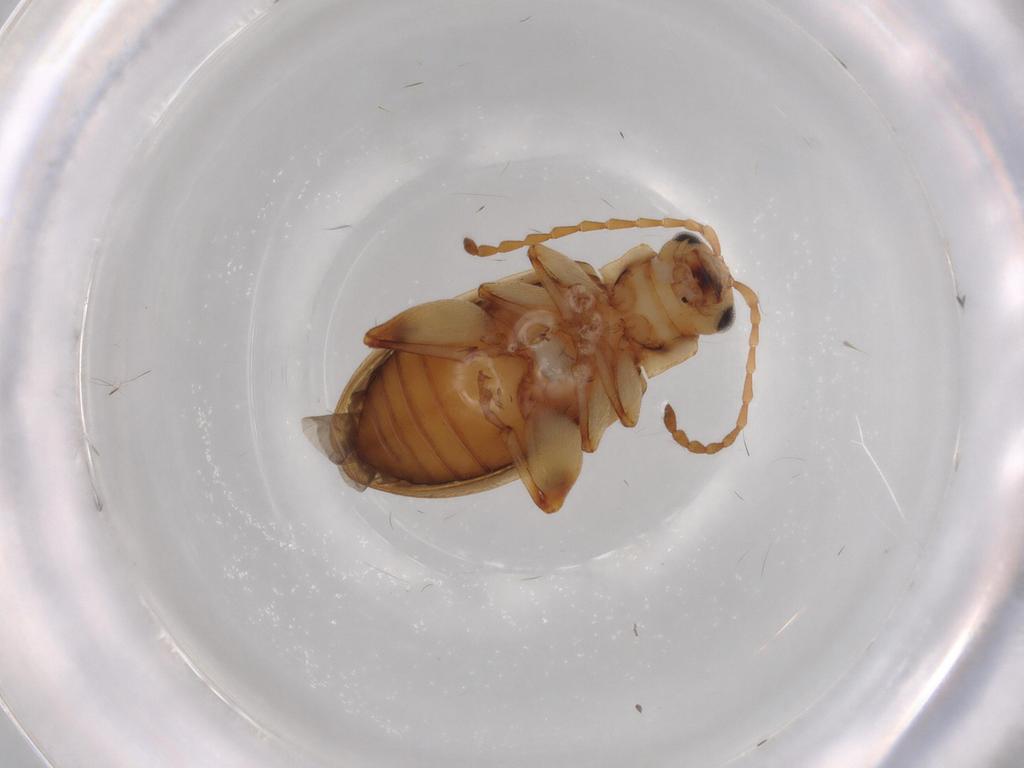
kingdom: Animalia
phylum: Arthropoda
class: Insecta
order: Coleoptera
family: Chrysomelidae
